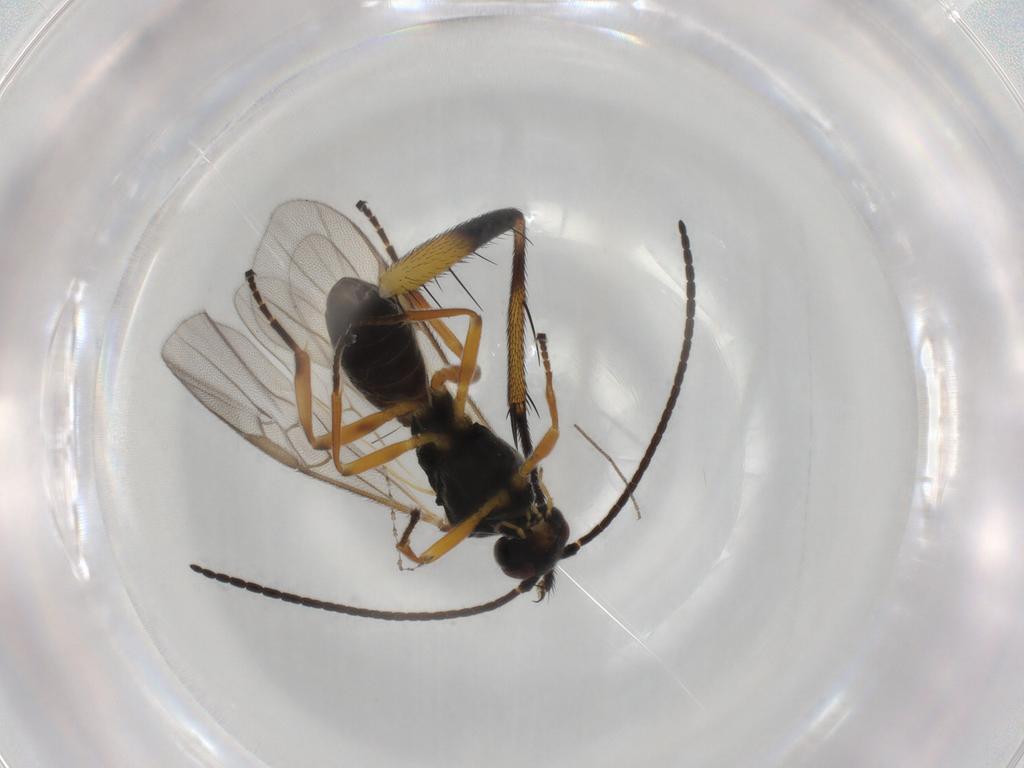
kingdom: Animalia
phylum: Arthropoda
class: Insecta
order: Hymenoptera
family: Braconidae
